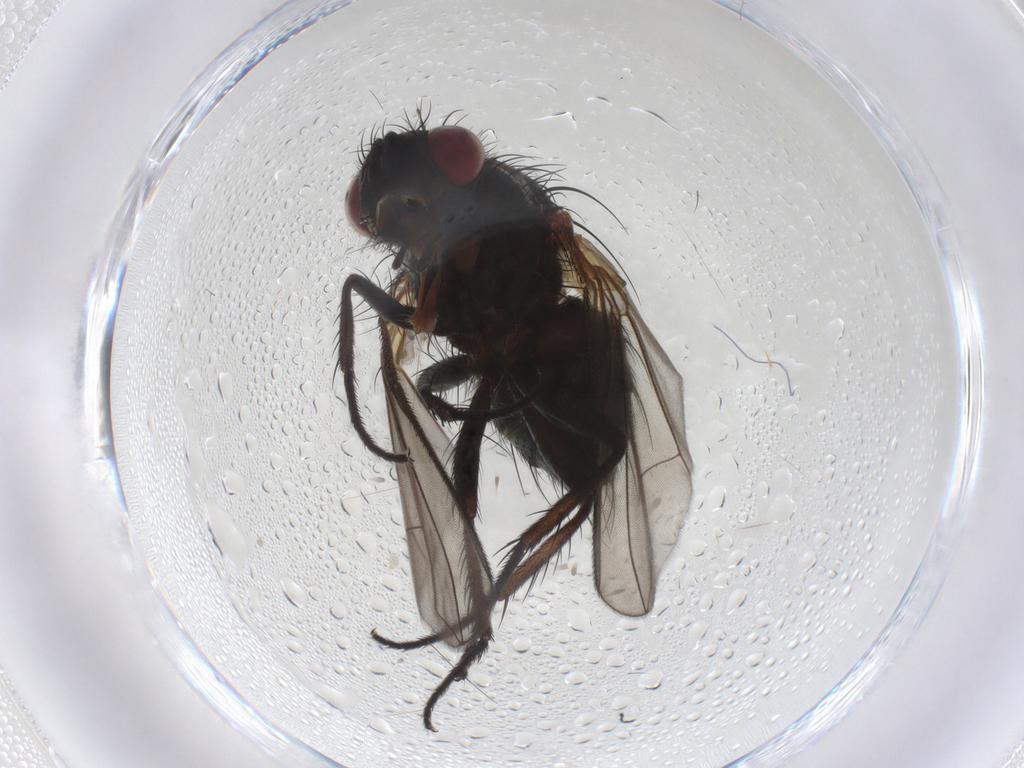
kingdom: Animalia
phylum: Arthropoda
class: Insecta
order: Diptera
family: Tachinidae
